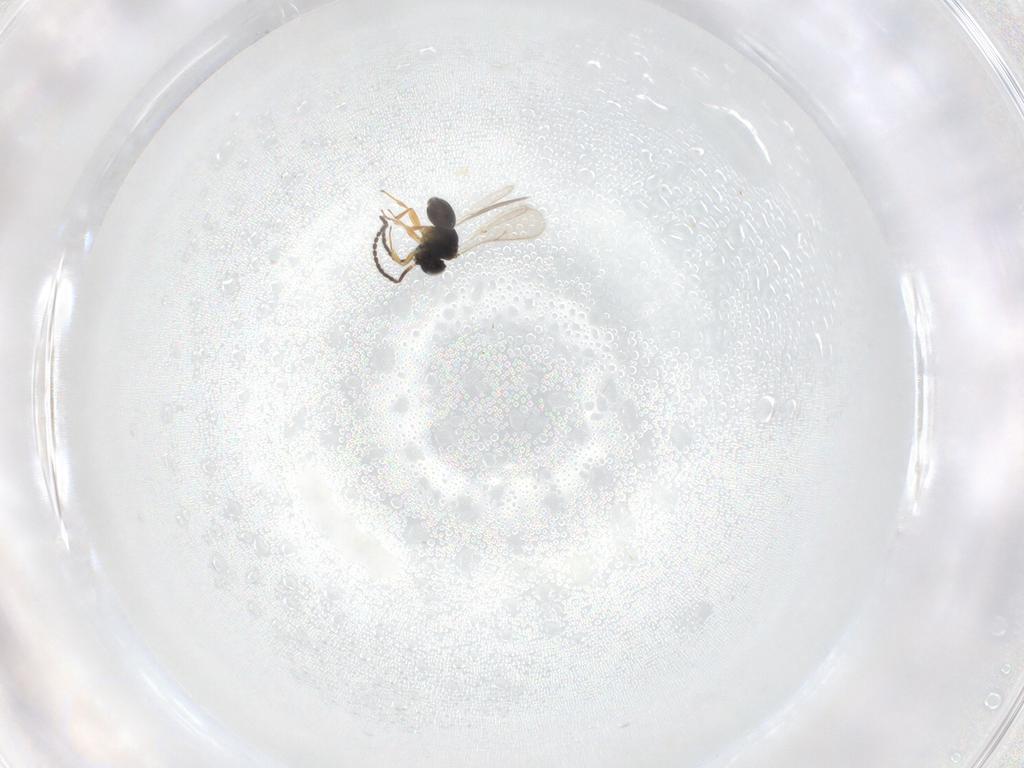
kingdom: Animalia
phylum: Arthropoda
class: Insecta
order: Hymenoptera
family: Scelionidae
